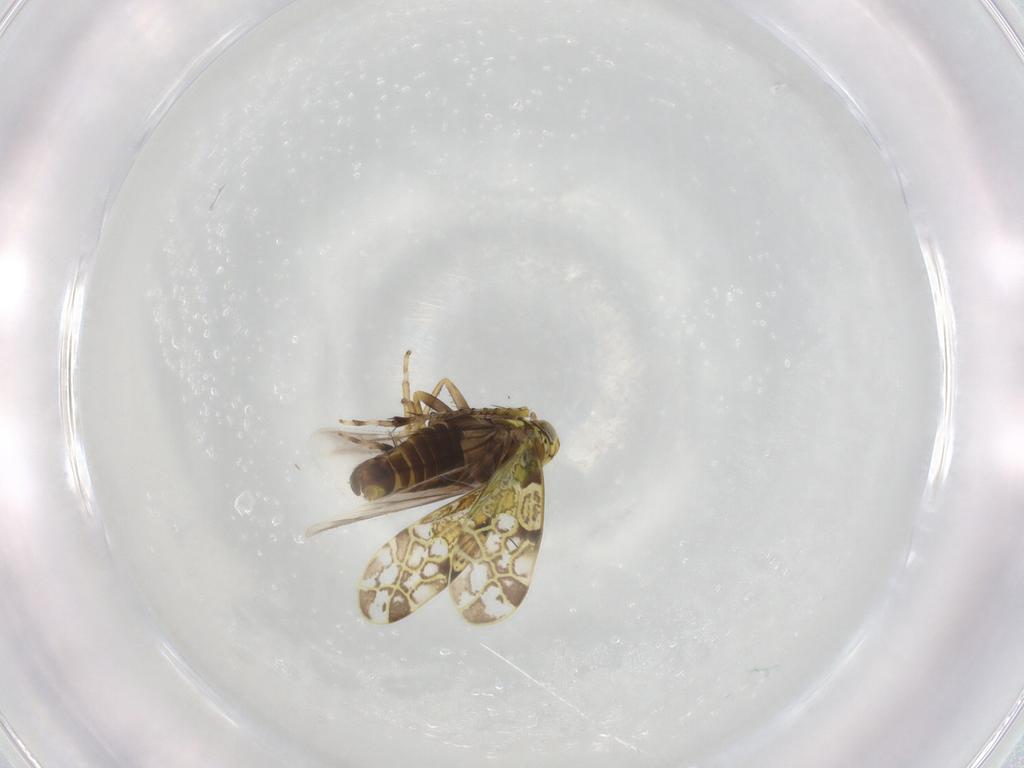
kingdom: Animalia
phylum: Arthropoda
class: Insecta
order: Hemiptera
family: Cicadellidae
